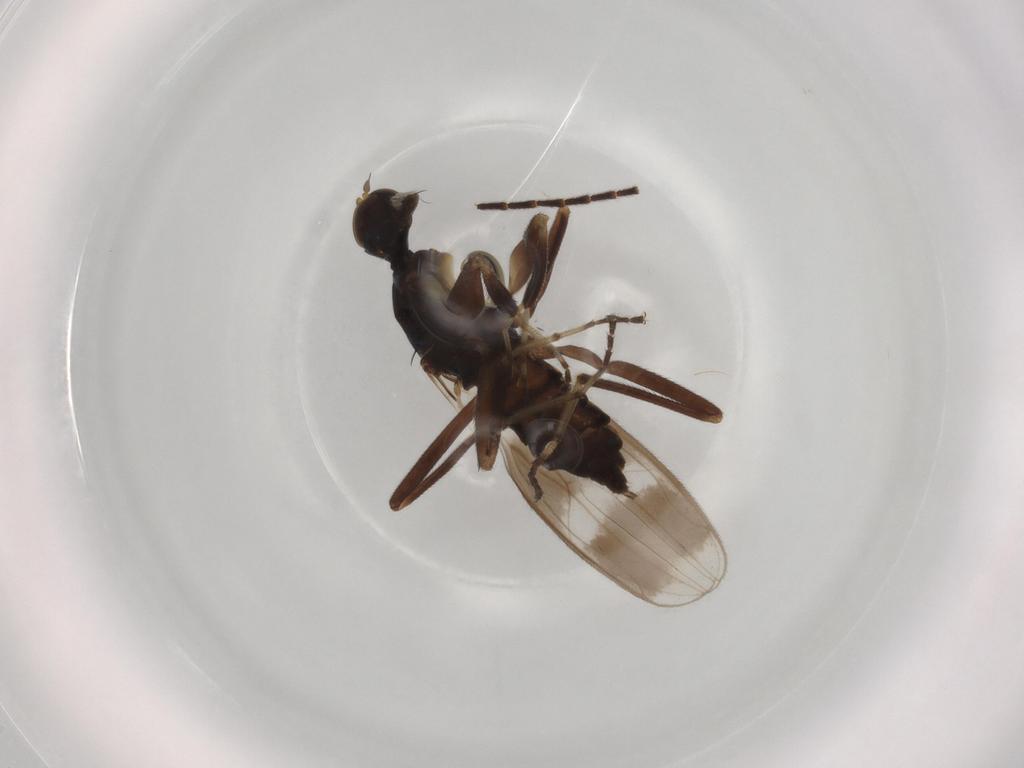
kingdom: Animalia
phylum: Arthropoda
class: Insecta
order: Diptera
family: Hybotidae
